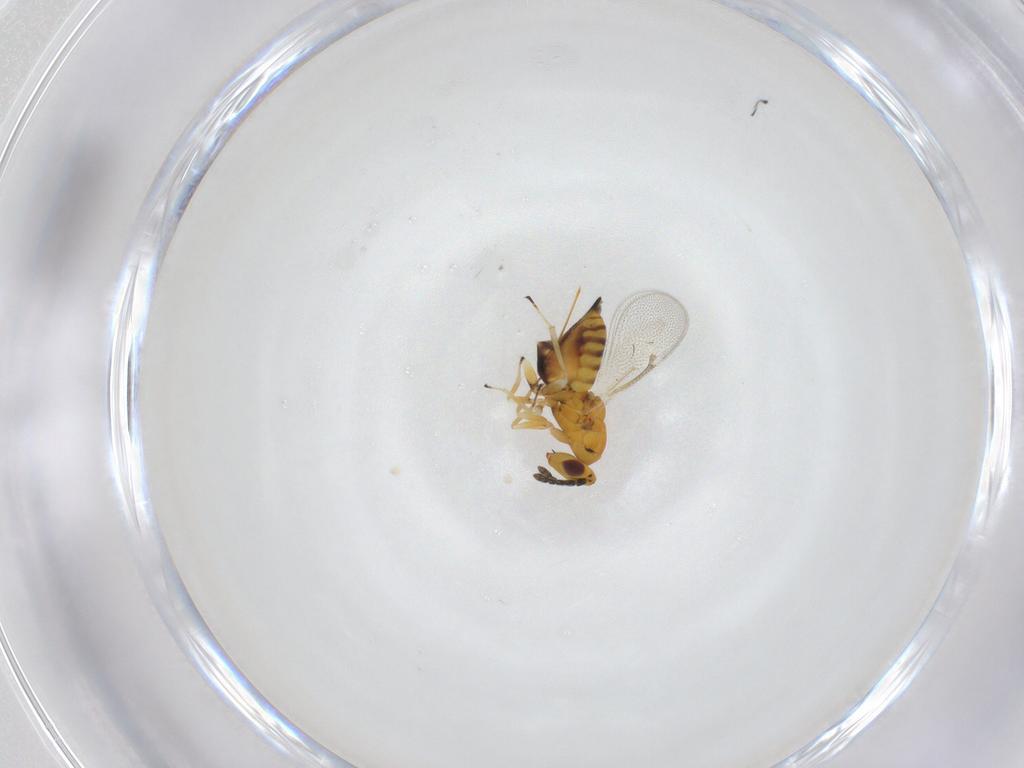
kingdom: Animalia
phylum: Arthropoda
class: Insecta
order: Hymenoptera
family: Eulophidae
